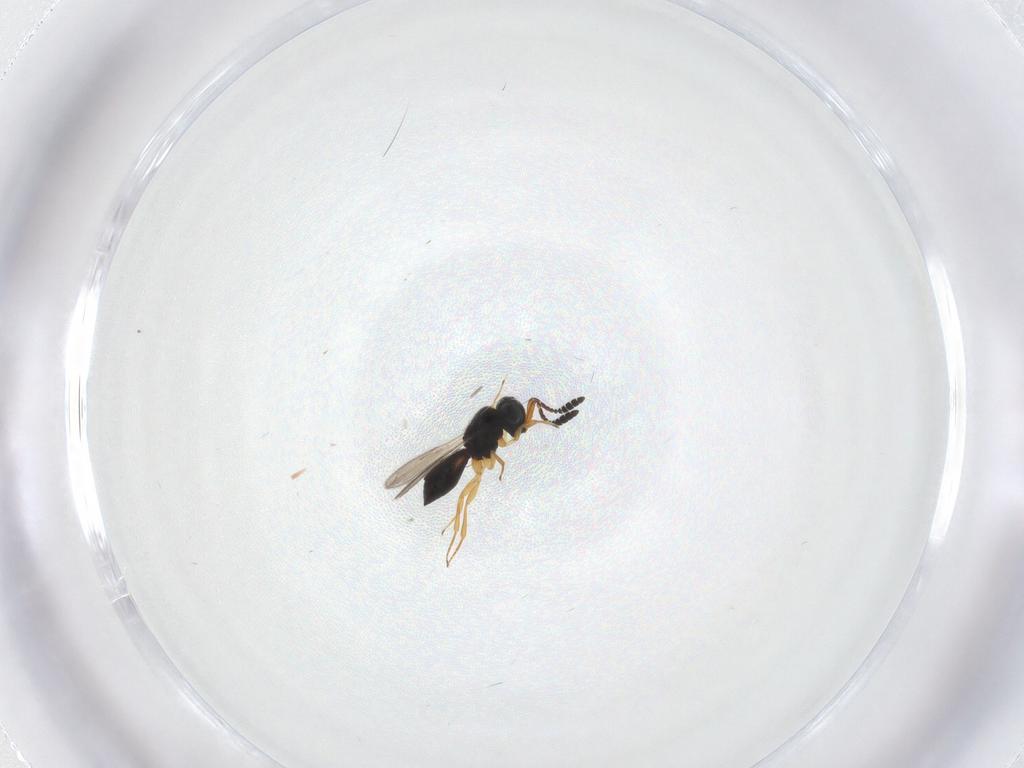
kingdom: Animalia
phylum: Arthropoda
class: Insecta
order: Hymenoptera
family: Scelionidae
